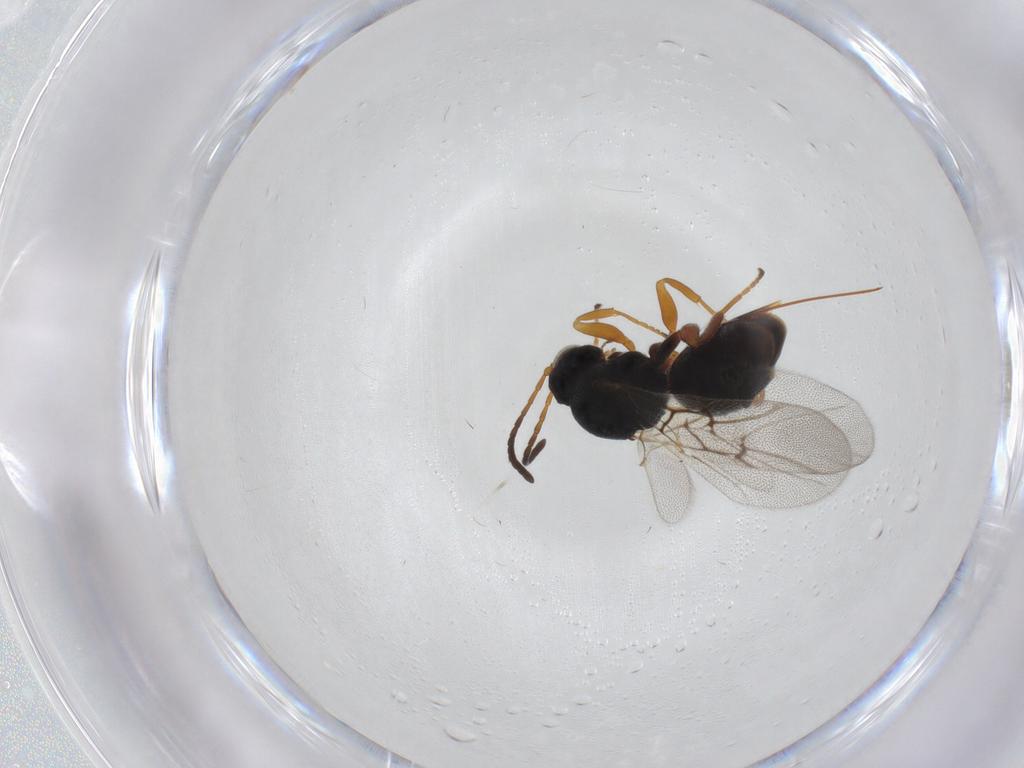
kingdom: Animalia
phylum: Arthropoda
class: Insecta
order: Hymenoptera
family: Cynipidae
